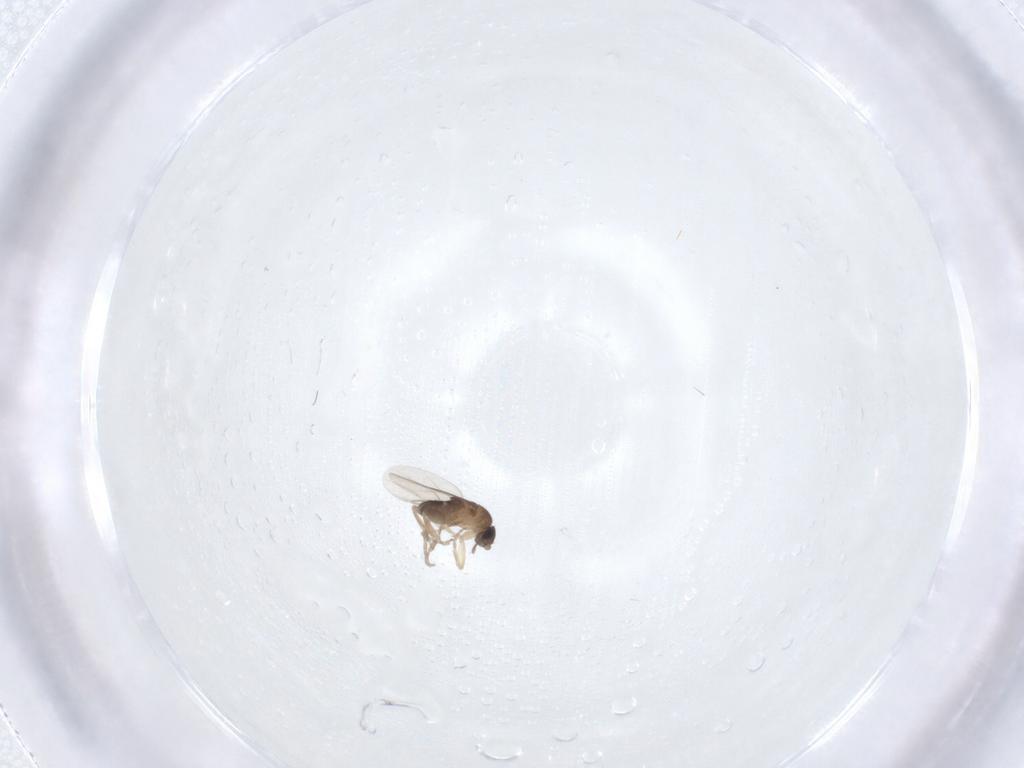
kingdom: Animalia
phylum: Arthropoda
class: Insecta
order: Diptera
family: Phoridae
